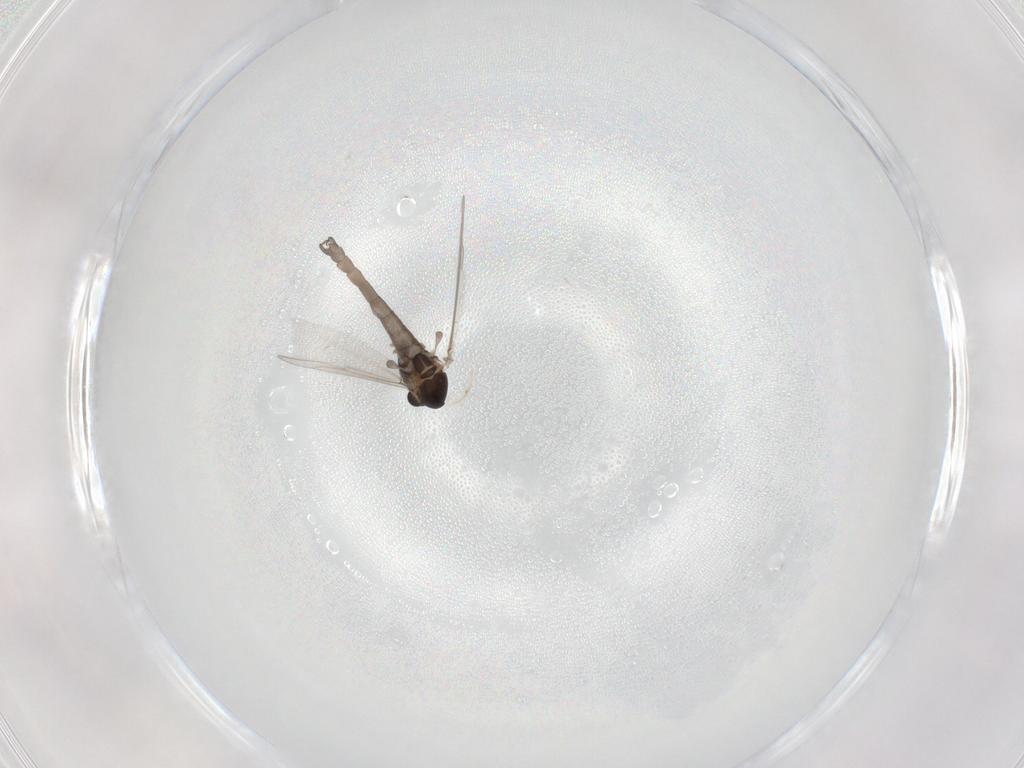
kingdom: Animalia
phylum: Arthropoda
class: Insecta
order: Diptera
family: Chironomidae
